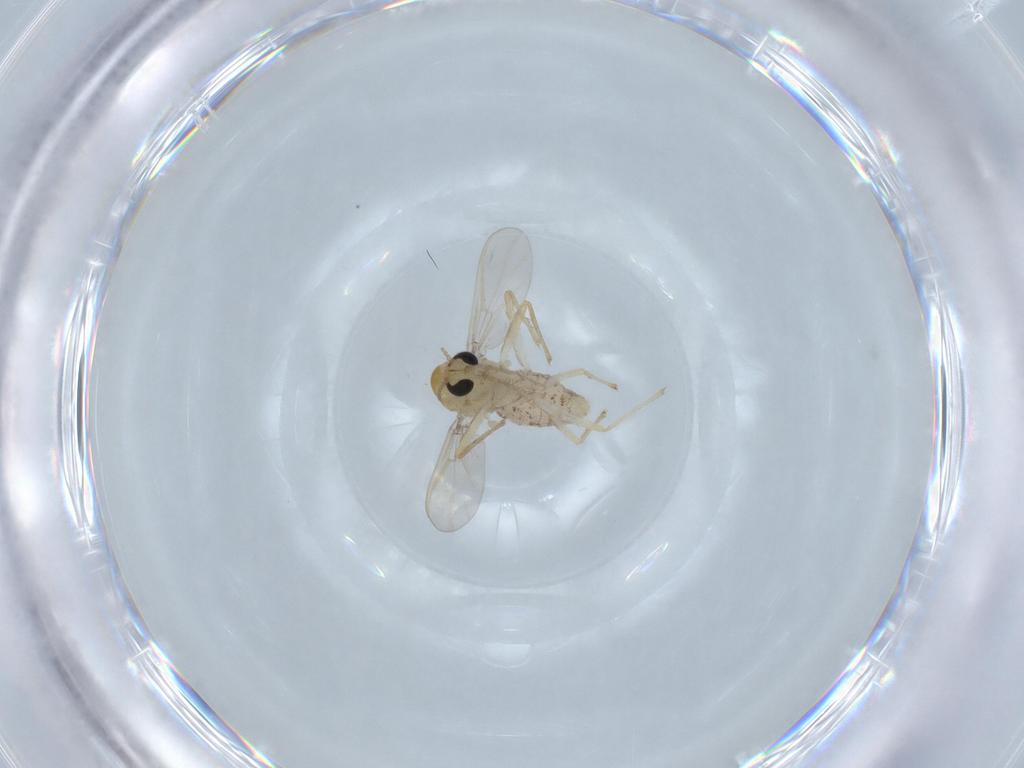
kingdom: Animalia
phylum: Arthropoda
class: Insecta
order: Diptera
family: Chironomidae
